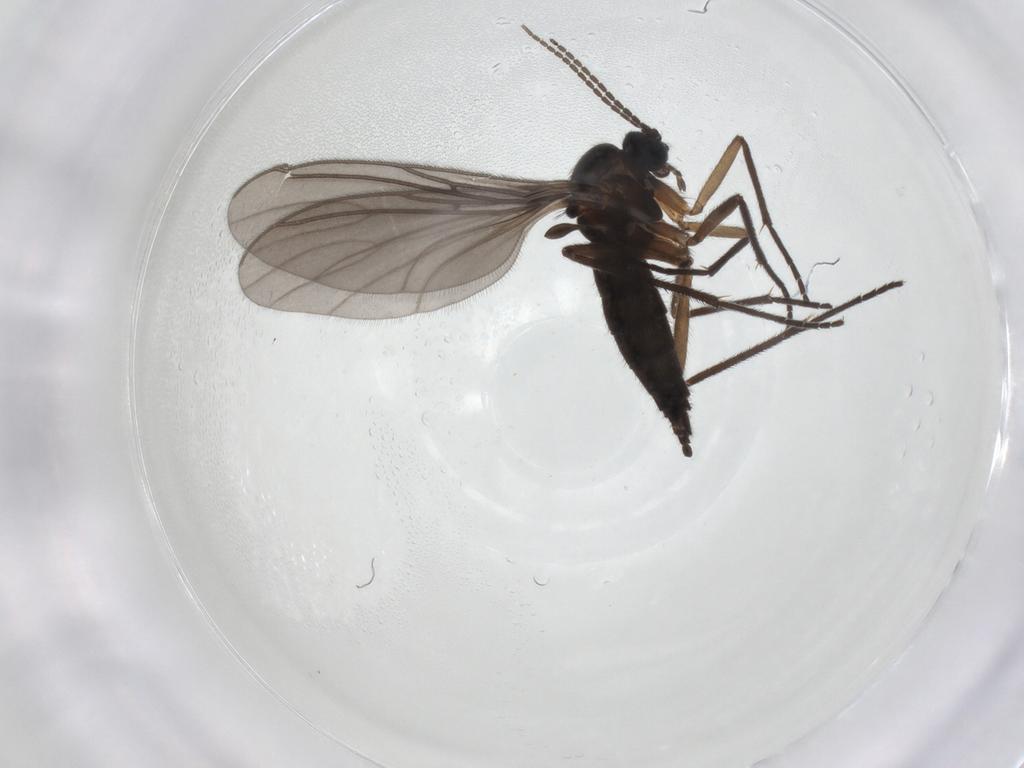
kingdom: Animalia
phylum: Arthropoda
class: Insecta
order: Diptera
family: Sciaridae
